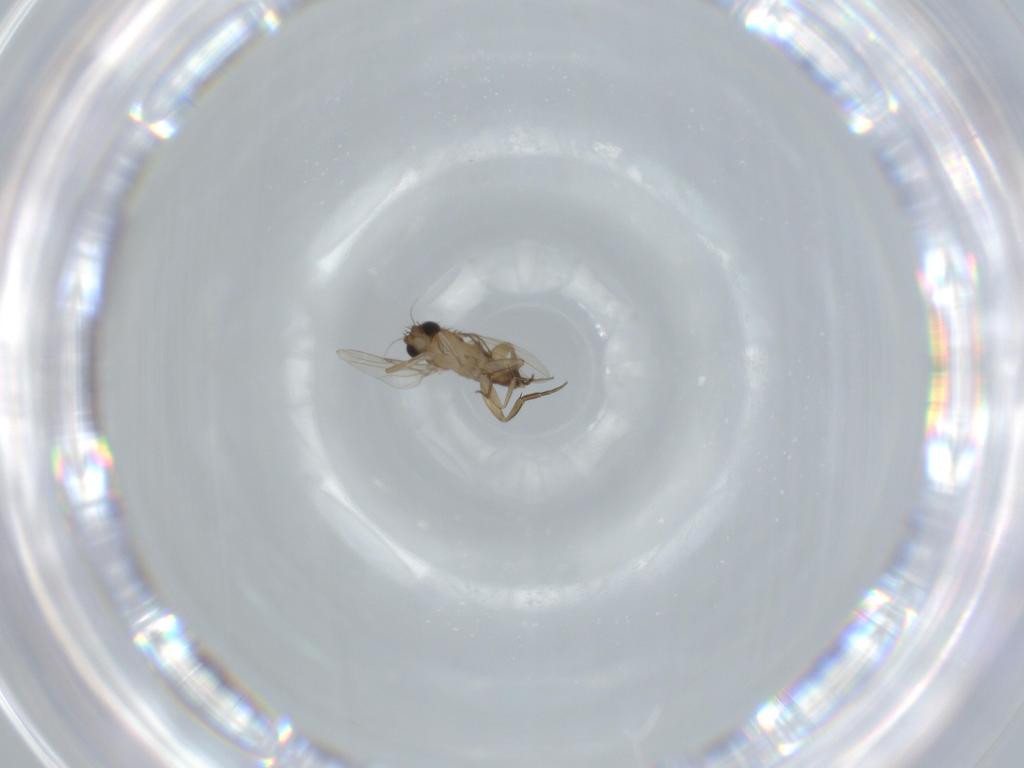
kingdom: Animalia
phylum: Arthropoda
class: Insecta
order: Diptera
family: Phoridae
